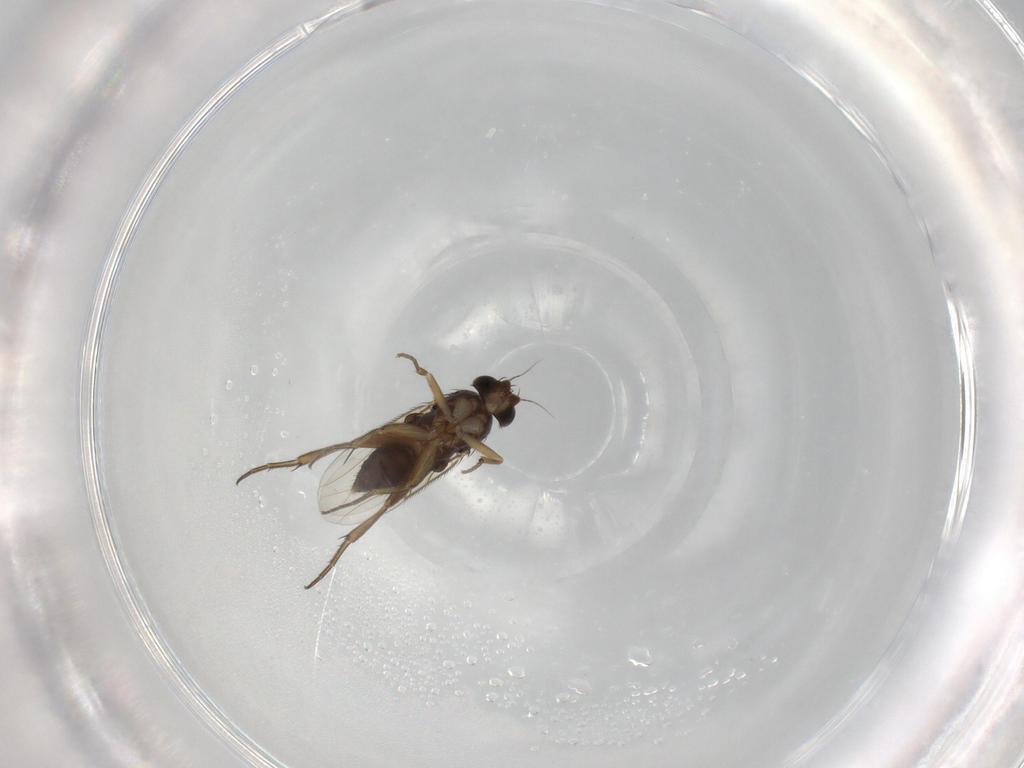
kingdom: Animalia
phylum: Arthropoda
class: Insecta
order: Diptera
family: Phoridae
